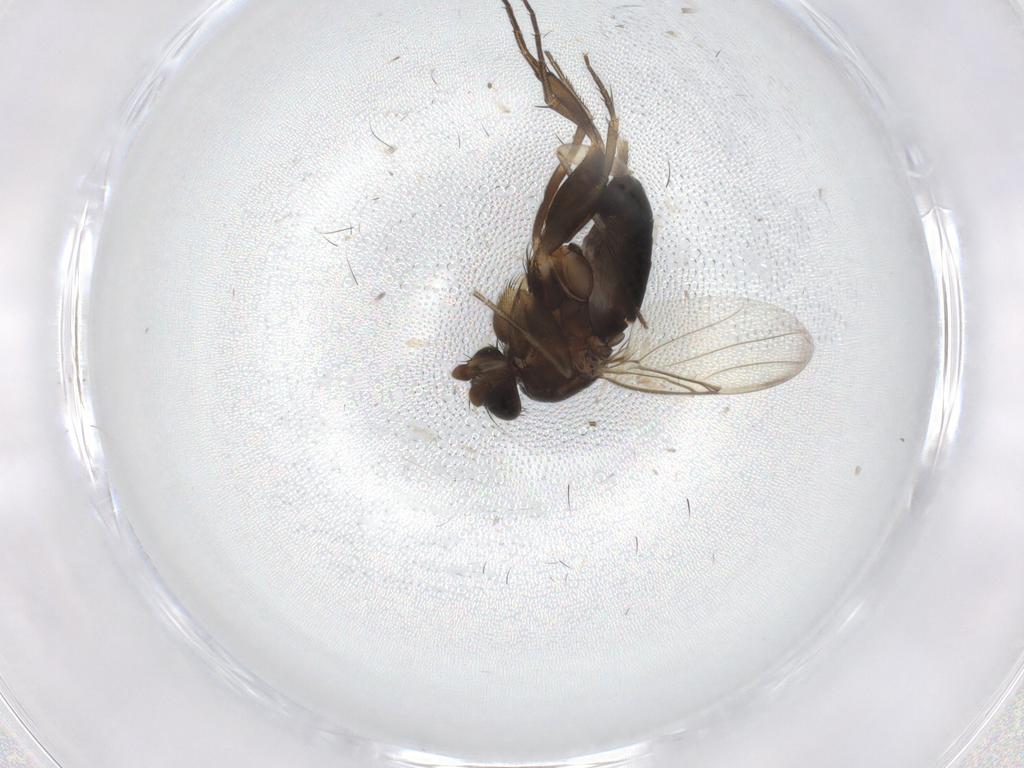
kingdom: Animalia
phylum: Arthropoda
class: Insecta
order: Diptera
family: Phoridae
